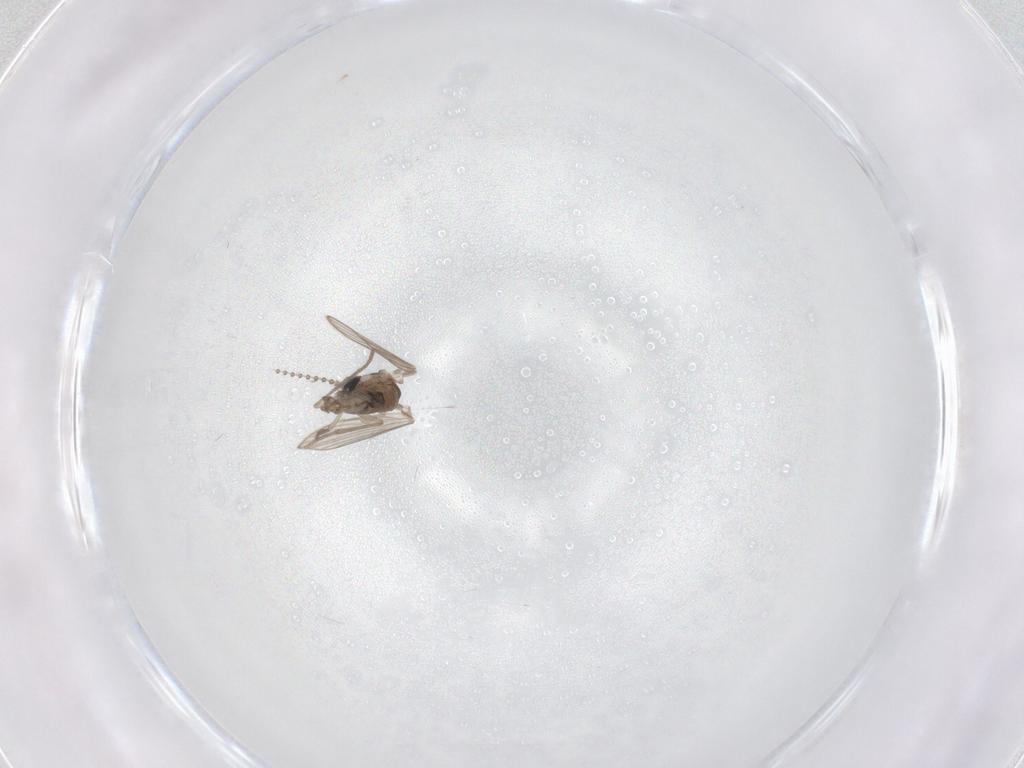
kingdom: Animalia
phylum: Arthropoda
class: Insecta
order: Diptera
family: Psychodidae
